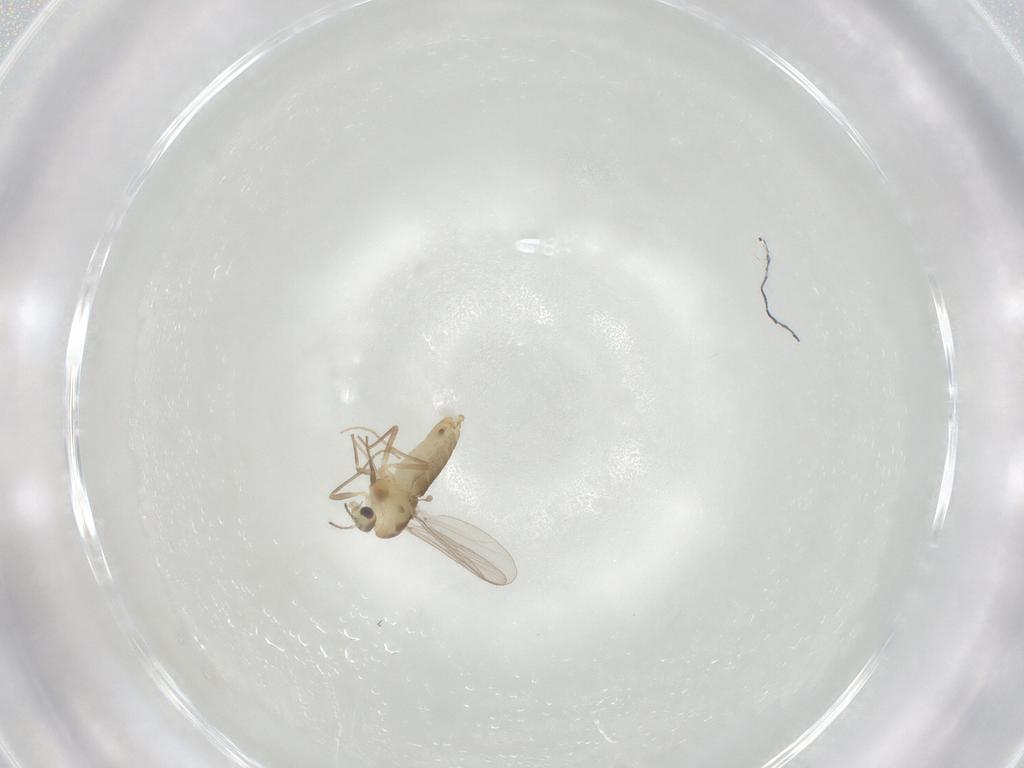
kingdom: Animalia
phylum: Arthropoda
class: Insecta
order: Diptera
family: Chironomidae
